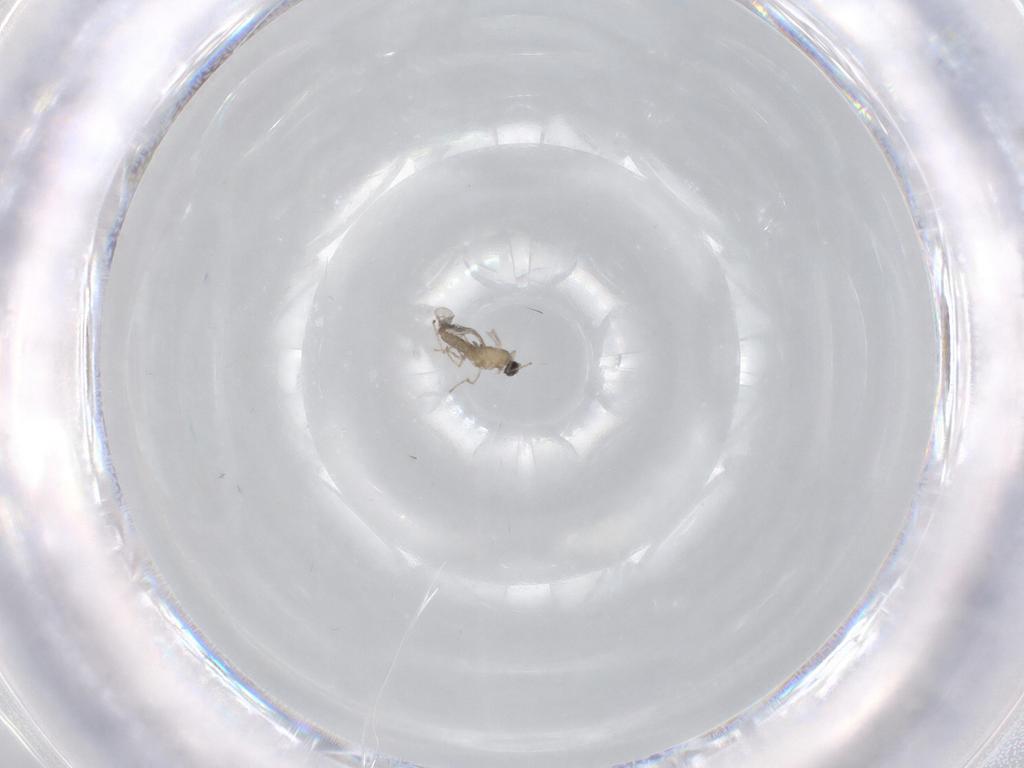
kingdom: Animalia
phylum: Arthropoda
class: Insecta
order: Diptera
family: Cecidomyiidae
